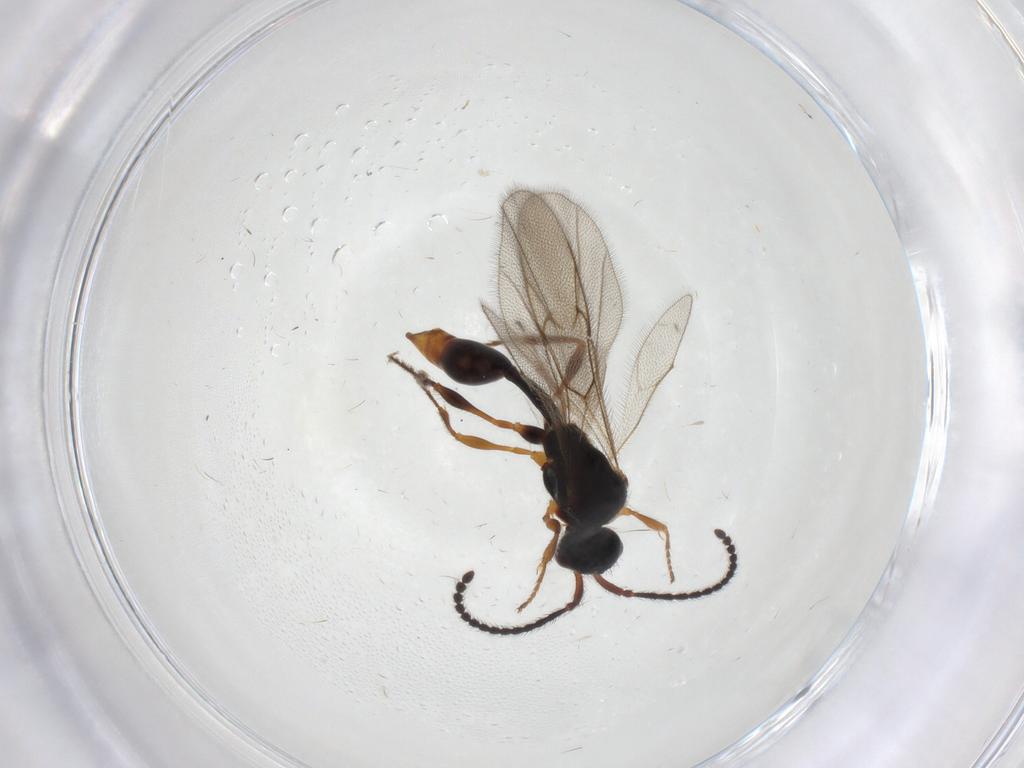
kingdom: Animalia
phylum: Arthropoda
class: Insecta
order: Hymenoptera
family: Diapriidae
